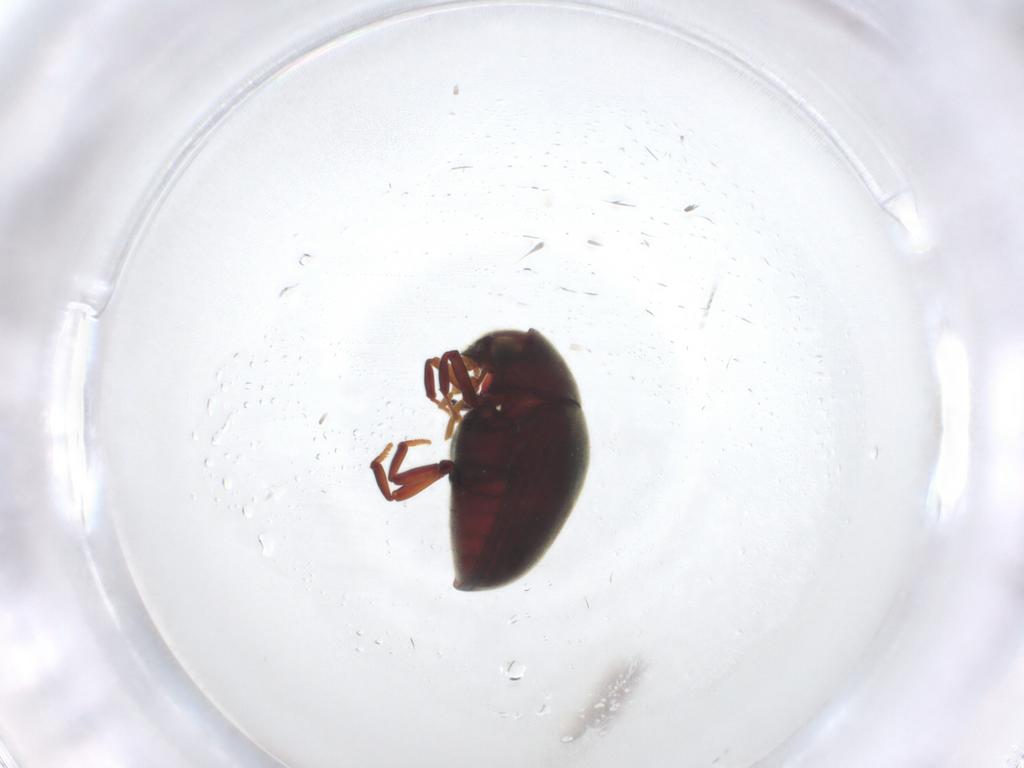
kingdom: Animalia
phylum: Arthropoda
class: Insecta
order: Coleoptera
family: Ptinidae
